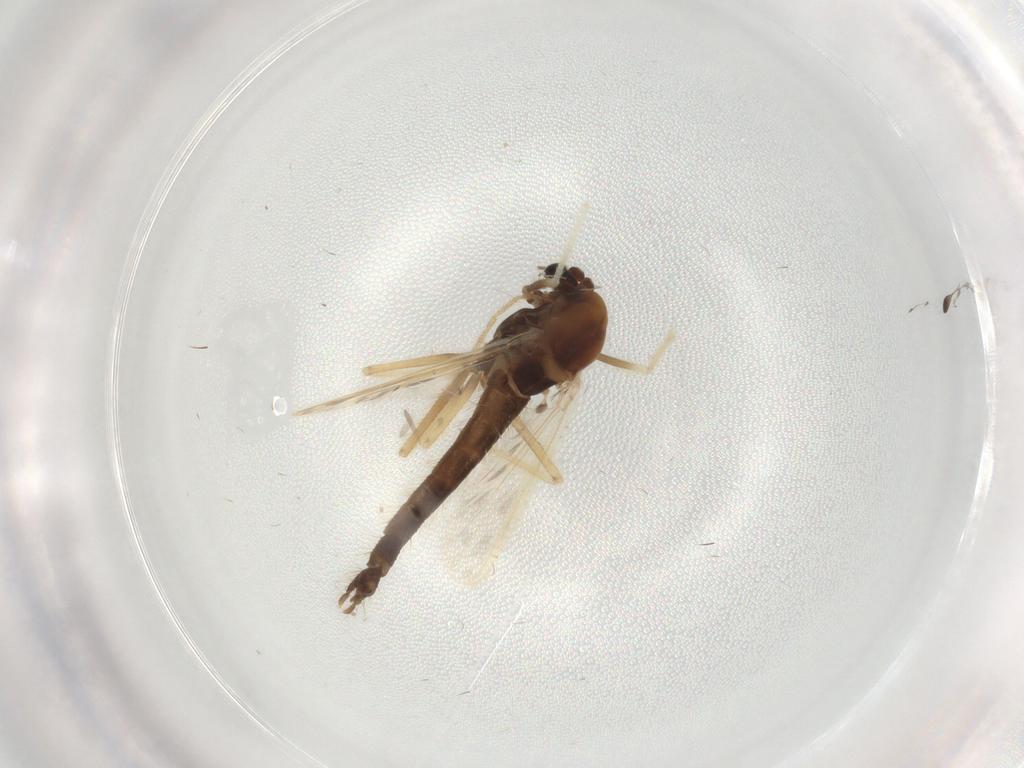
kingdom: Animalia
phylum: Arthropoda
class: Insecta
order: Diptera
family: Chironomidae
